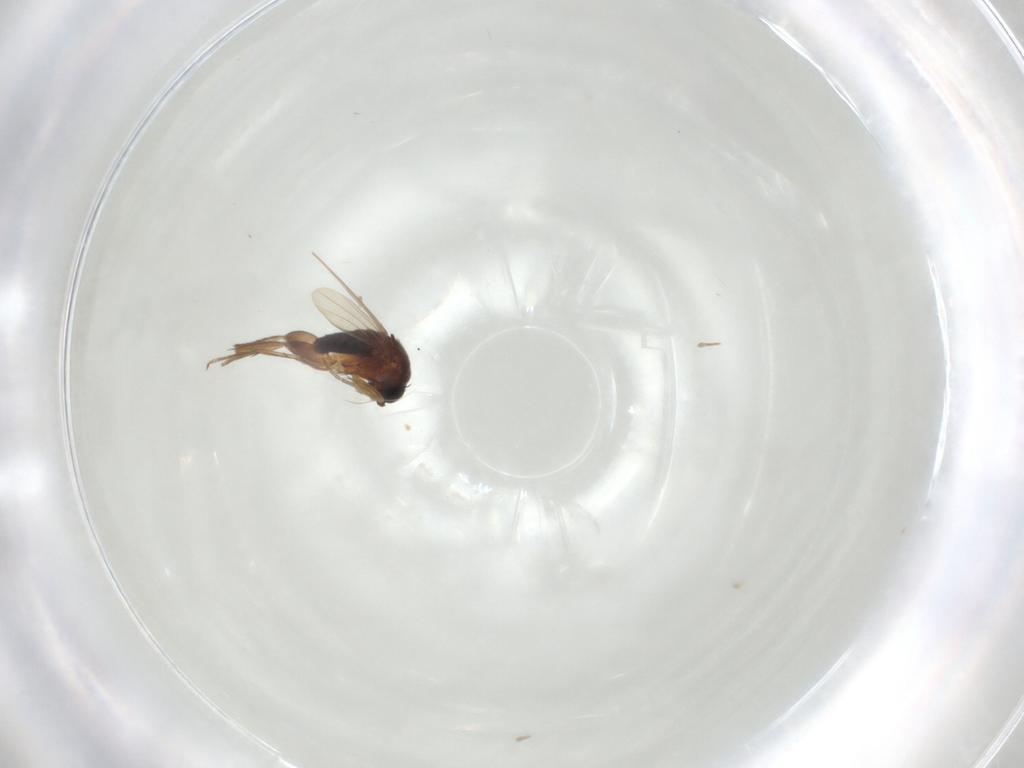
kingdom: Animalia
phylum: Arthropoda
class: Insecta
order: Diptera
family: Phoridae
